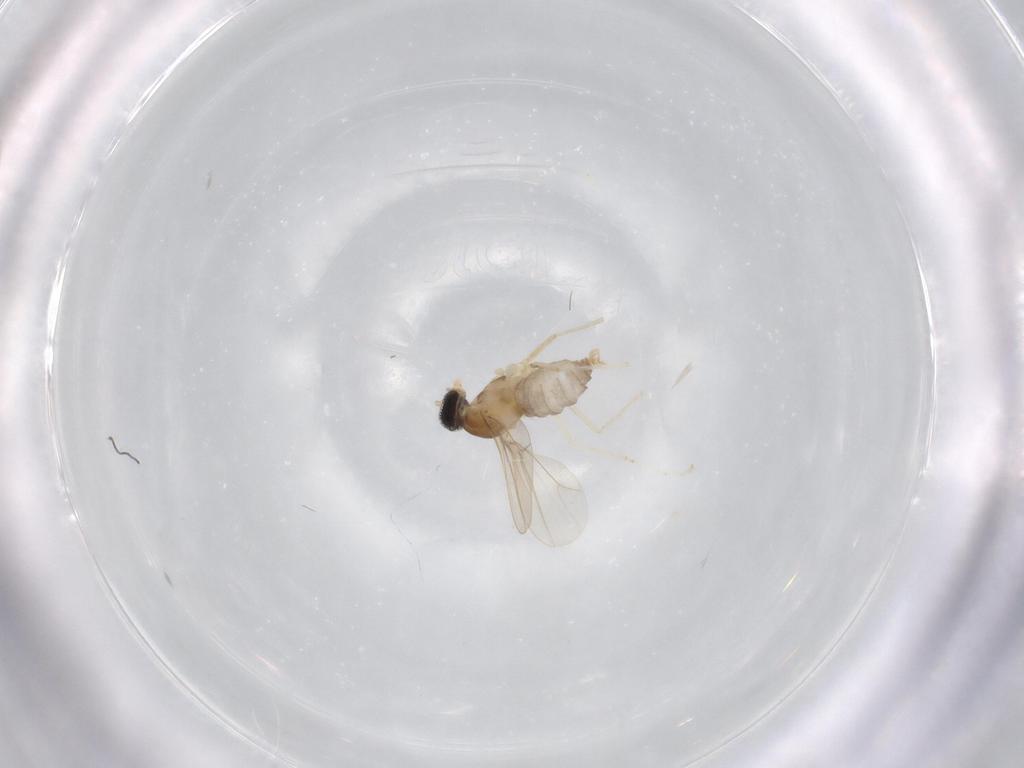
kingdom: Animalia
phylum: Arthropoda
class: Insecta
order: Diptera
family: Cecidomyiidae
